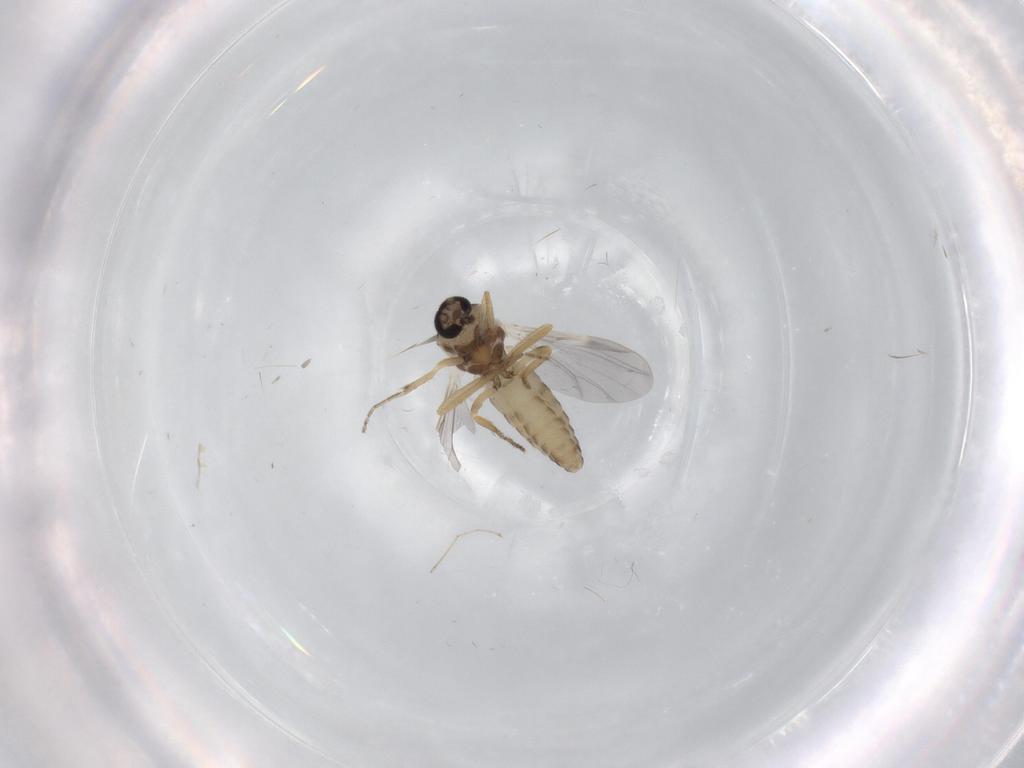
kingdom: Animalia
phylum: Arthropoda
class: Insecta
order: Diptera
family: Ceratopogonidae
